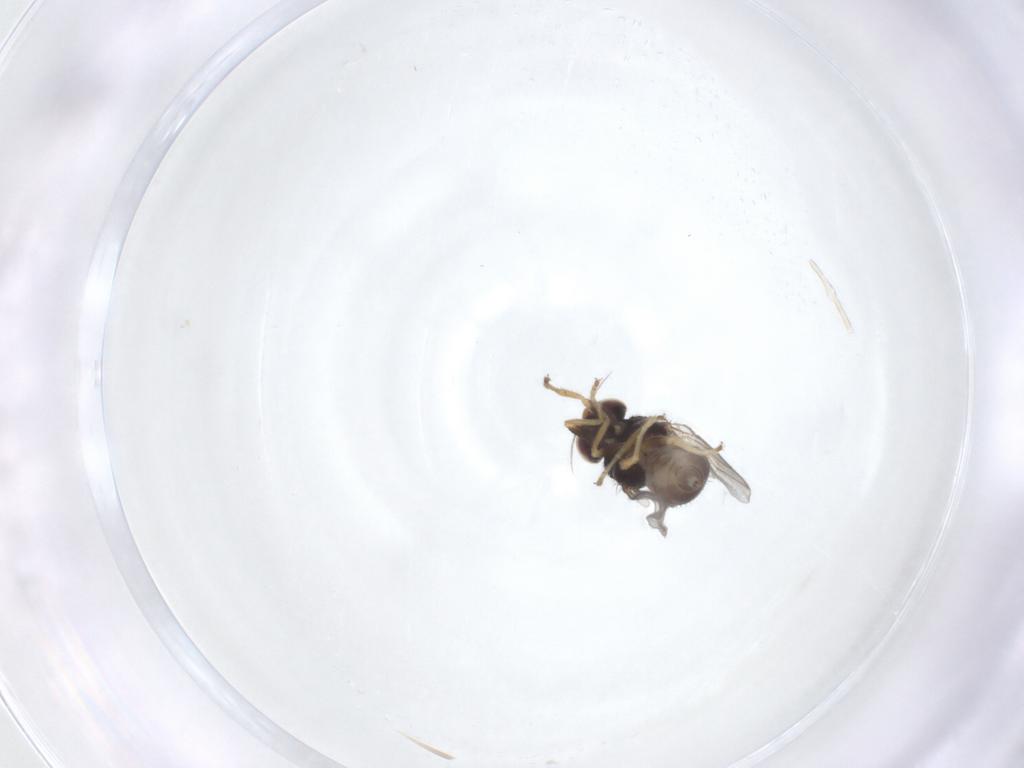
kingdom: Animalia
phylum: Arthropoda
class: Insecta
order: Diptera
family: Chloropidae
